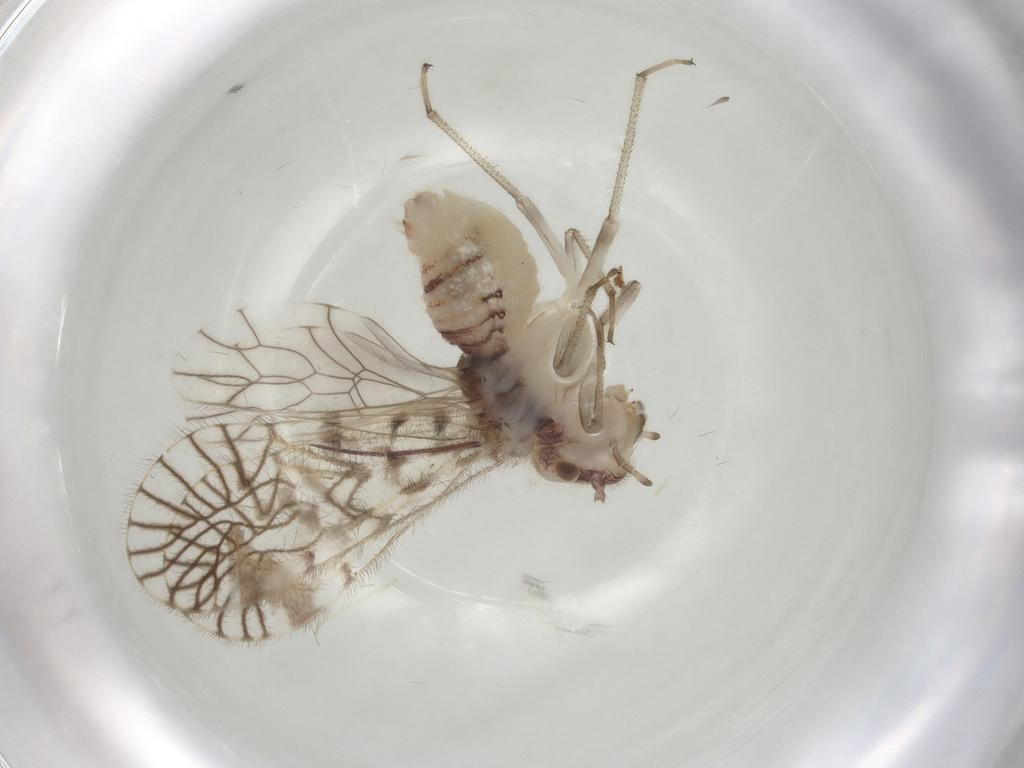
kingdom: Animalia
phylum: Arthropoda
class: Insecta
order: Psocodea
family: Amphipsocidae
